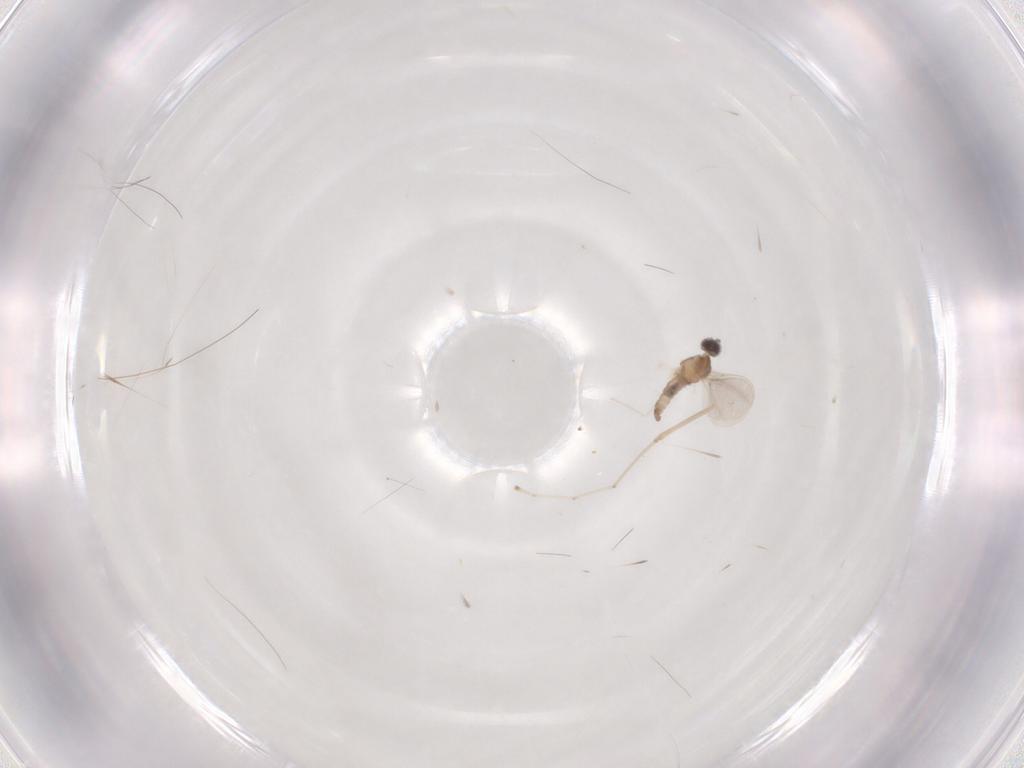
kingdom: Animalia
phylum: Arthropoda
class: Insecta
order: Diptera
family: Cecidomyiidae
